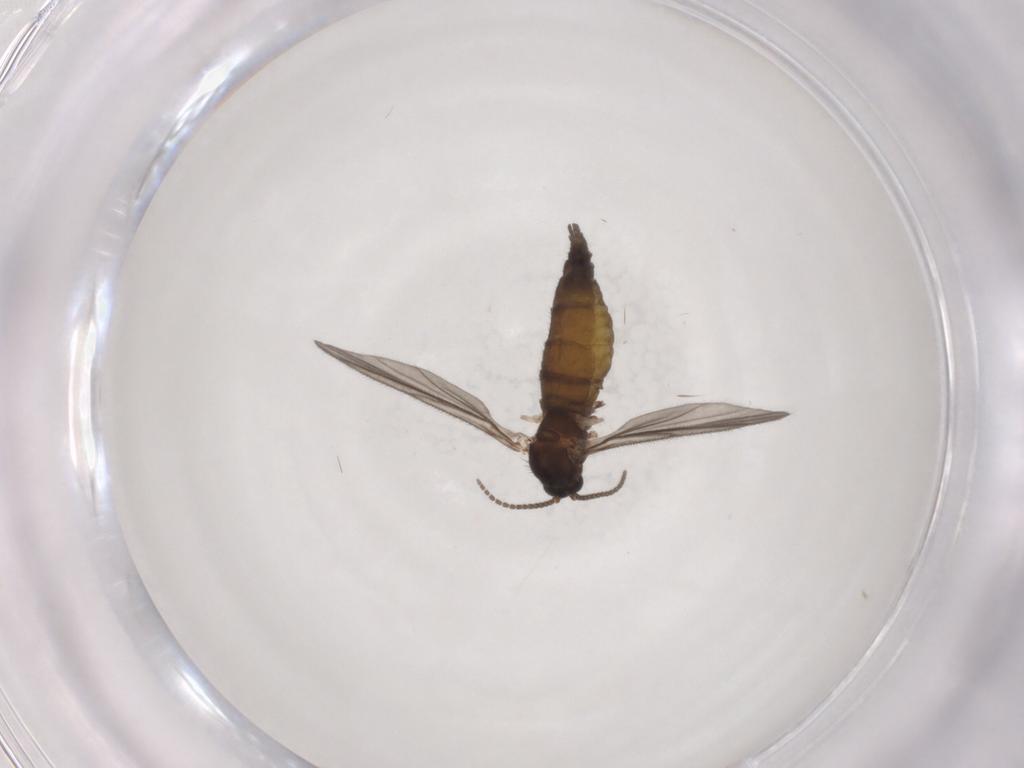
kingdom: Animalia
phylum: Arthropoda
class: Insecta
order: Diptera
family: Sciaridae
